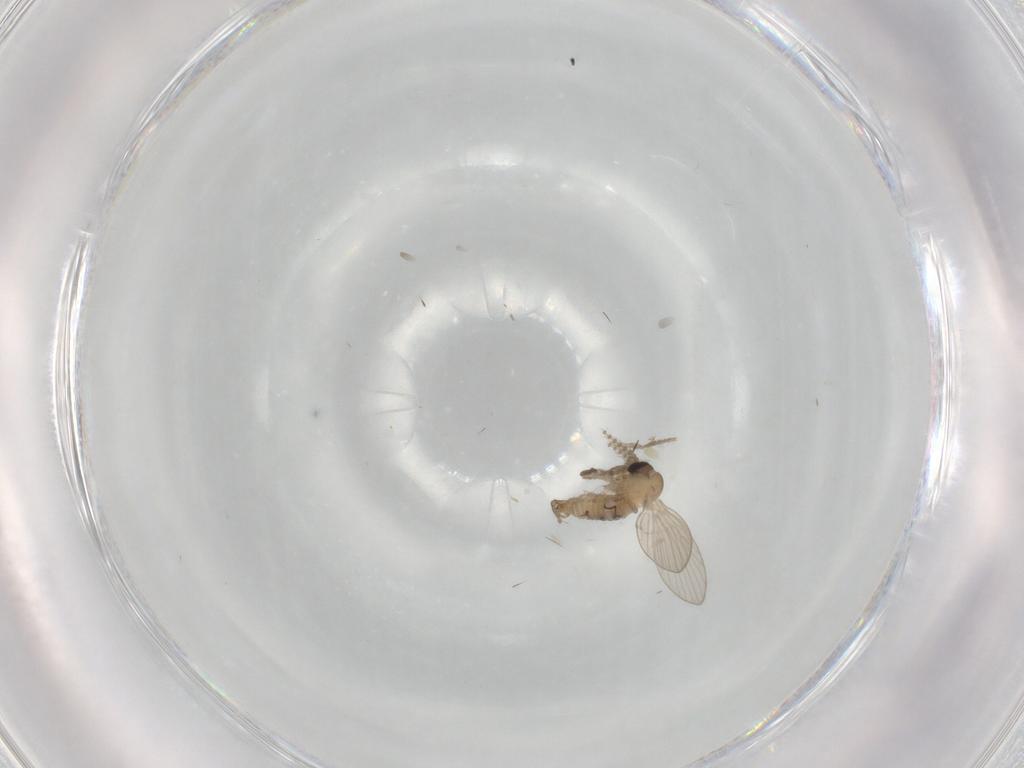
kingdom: Animalia
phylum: Arthropoda
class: Insecta
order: Diptera
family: Psychodidae
